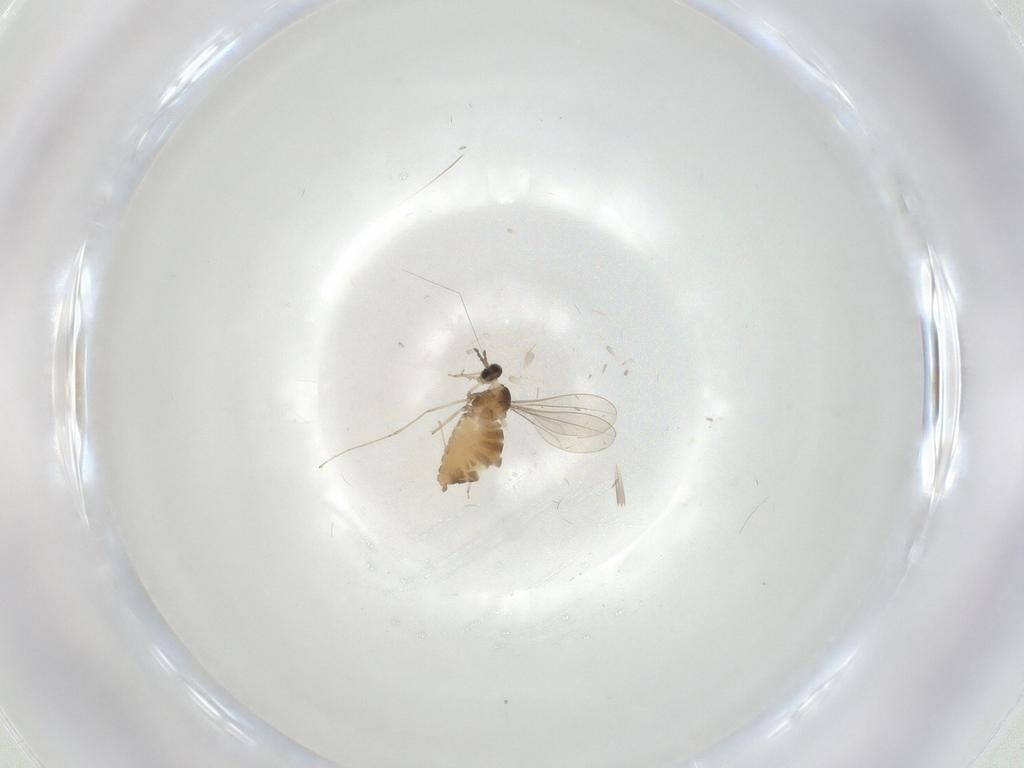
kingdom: Animalia
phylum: Arthropoda
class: Insecta
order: Diptera
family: Cecidomyiidae
